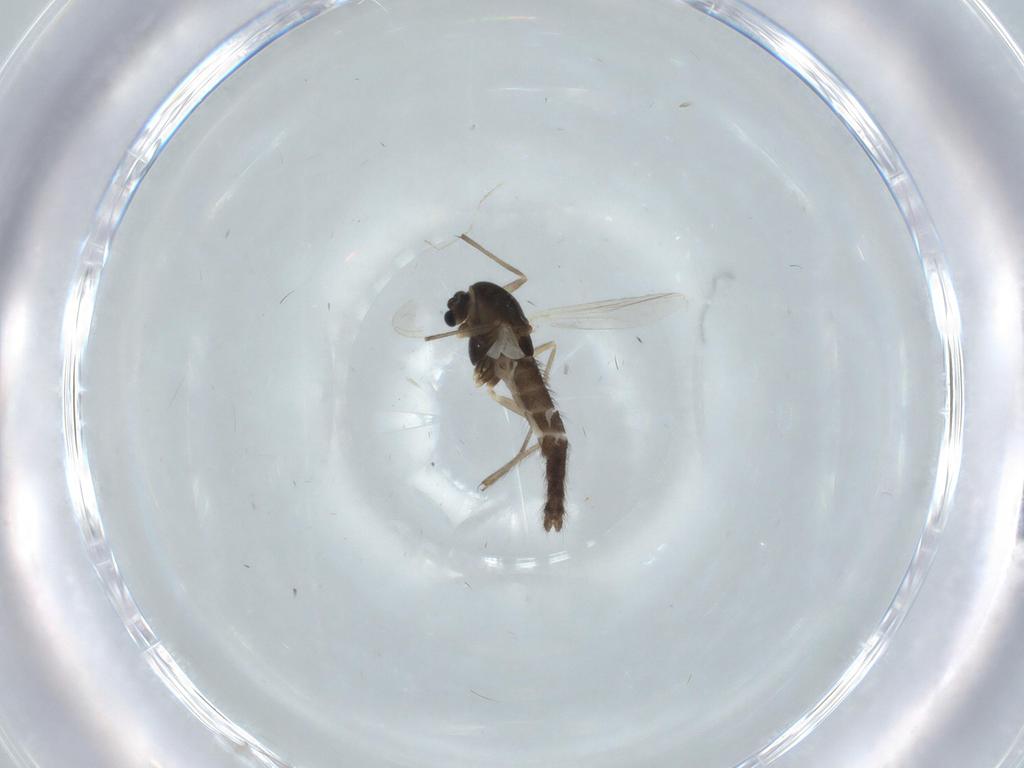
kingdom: Animalia
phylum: Arthropoda
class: Insecta
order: Diptera
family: Chironomidae
